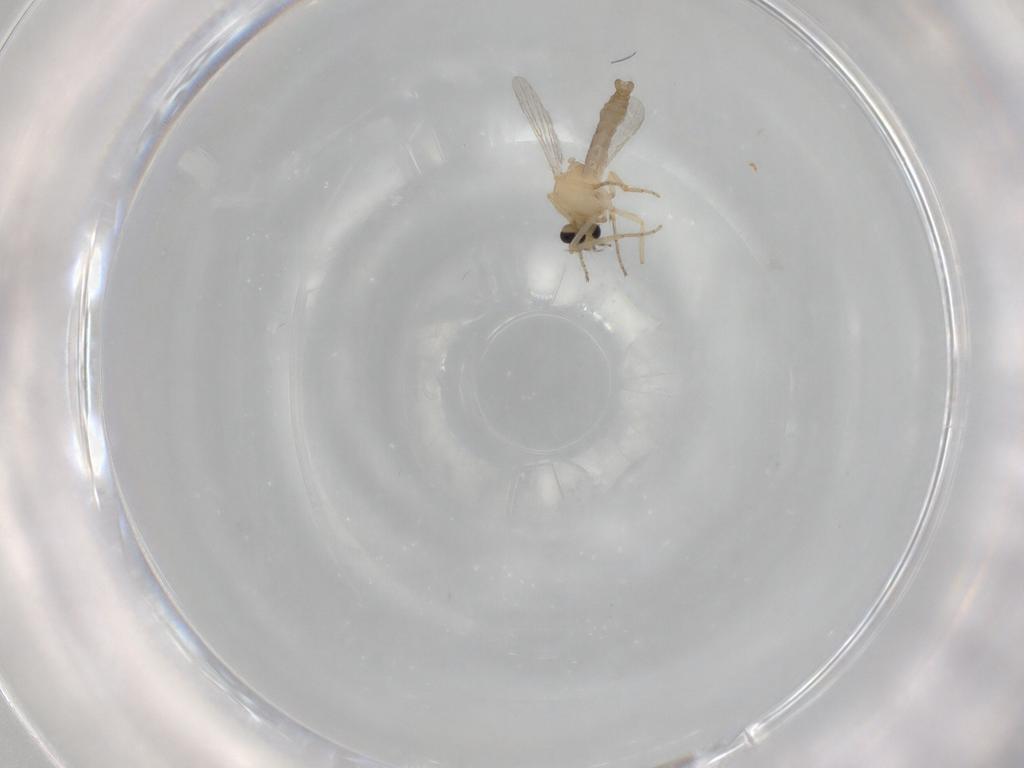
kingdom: Animalia
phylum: Arthropoda
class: Insecta
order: Diptera
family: Ceratopogonidae
